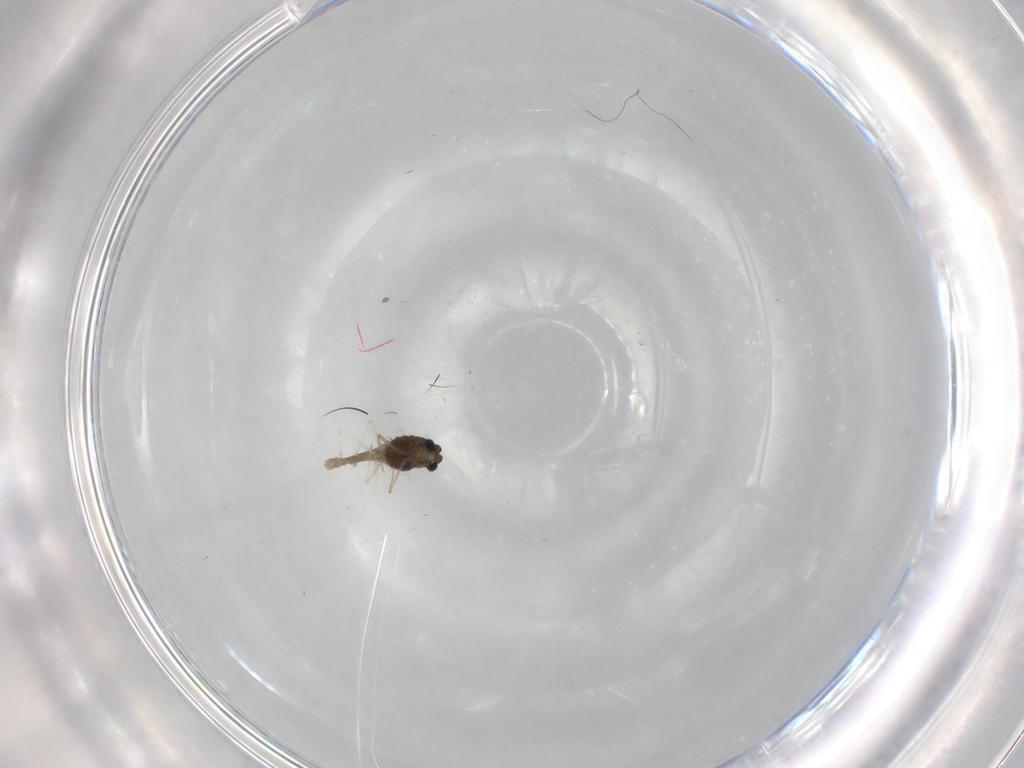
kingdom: Animalia
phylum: Arthropoda
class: Insecta
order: Diptera
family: Chironomidae
